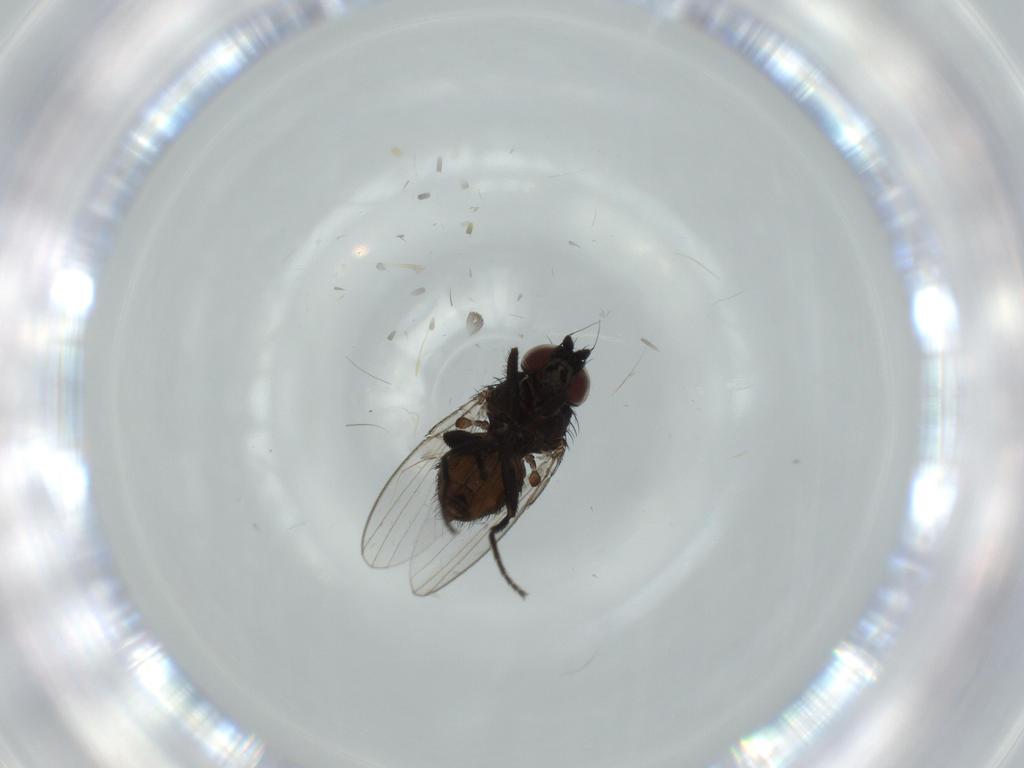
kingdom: Animalia
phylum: Arthropoda
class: Insecta
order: Diptera
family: Milichiidae
